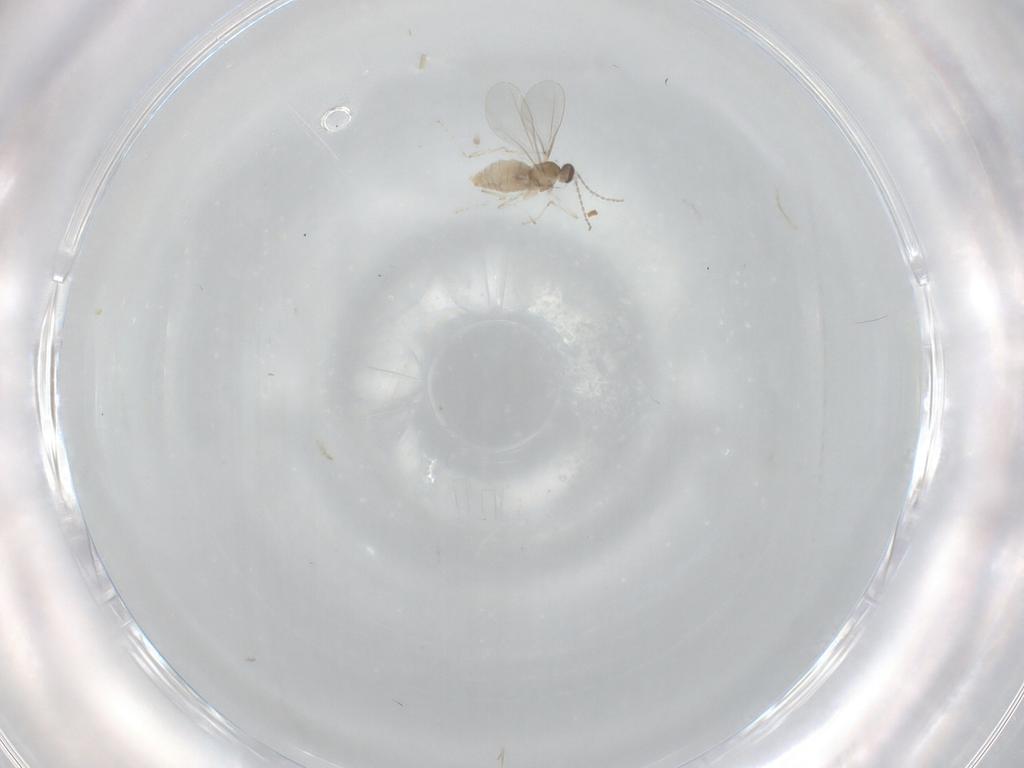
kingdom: Animalia
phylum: Arthropoda
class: Insecta
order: Diptera
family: Cecidomyiidae
